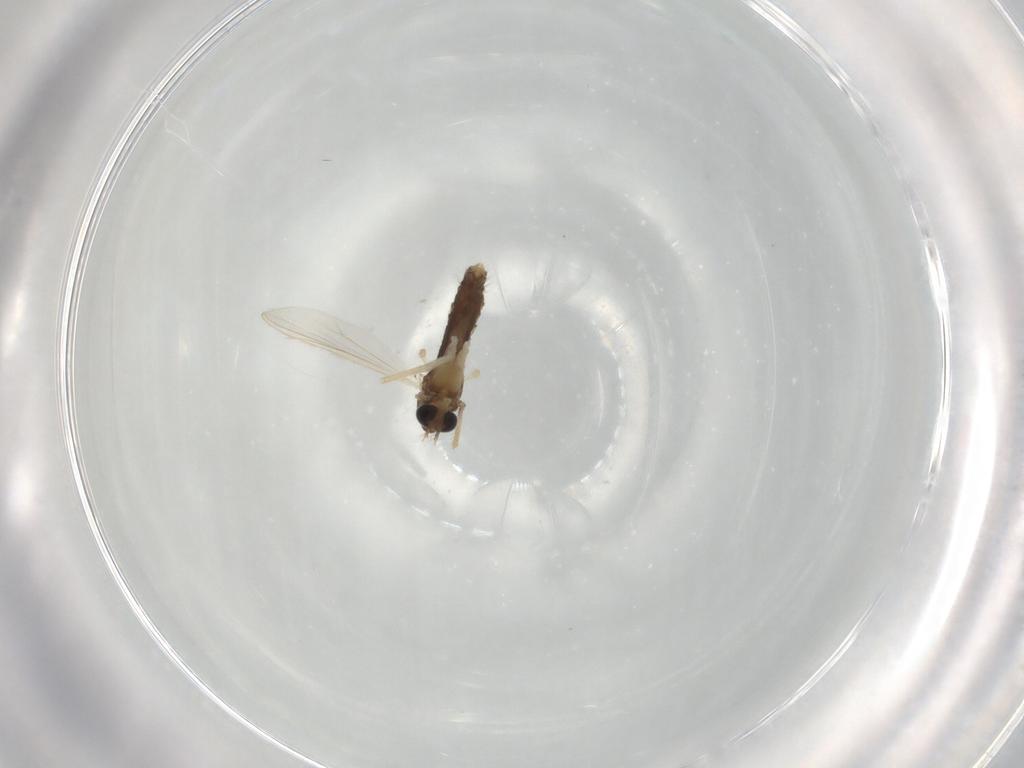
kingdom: Animalia
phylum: Arthropoda
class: Insecta
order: Diptera
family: Chironomidae
